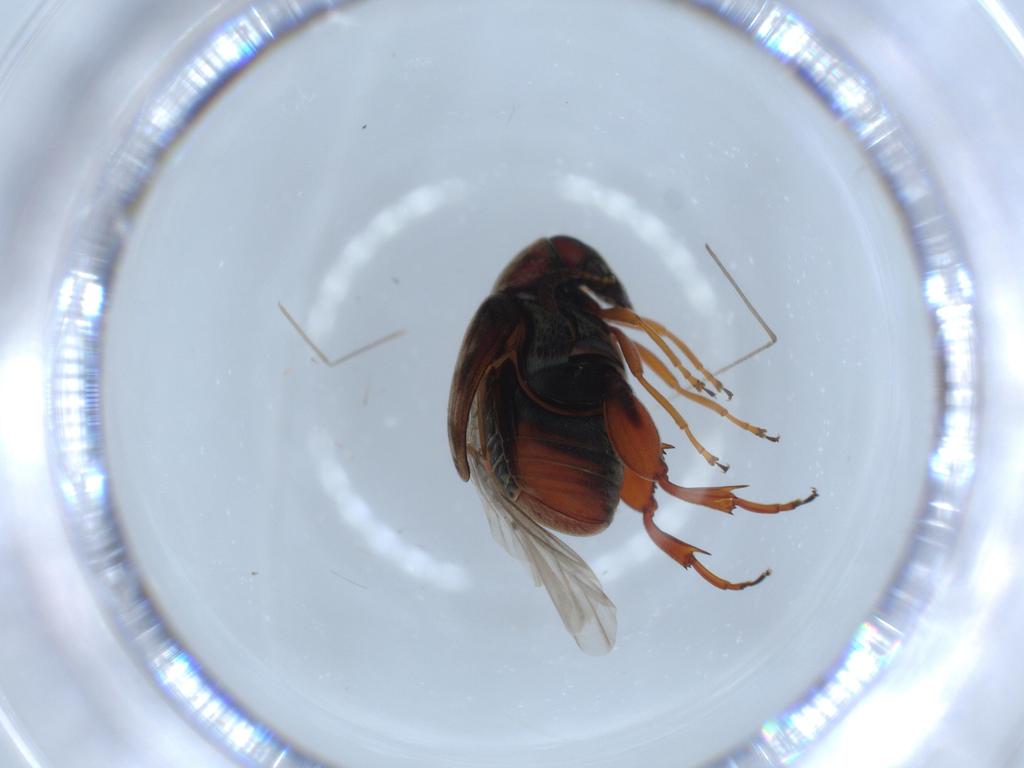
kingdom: Animalia
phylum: Arthropoda
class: Insecta
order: Coleoptera
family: Chrysomelidae
